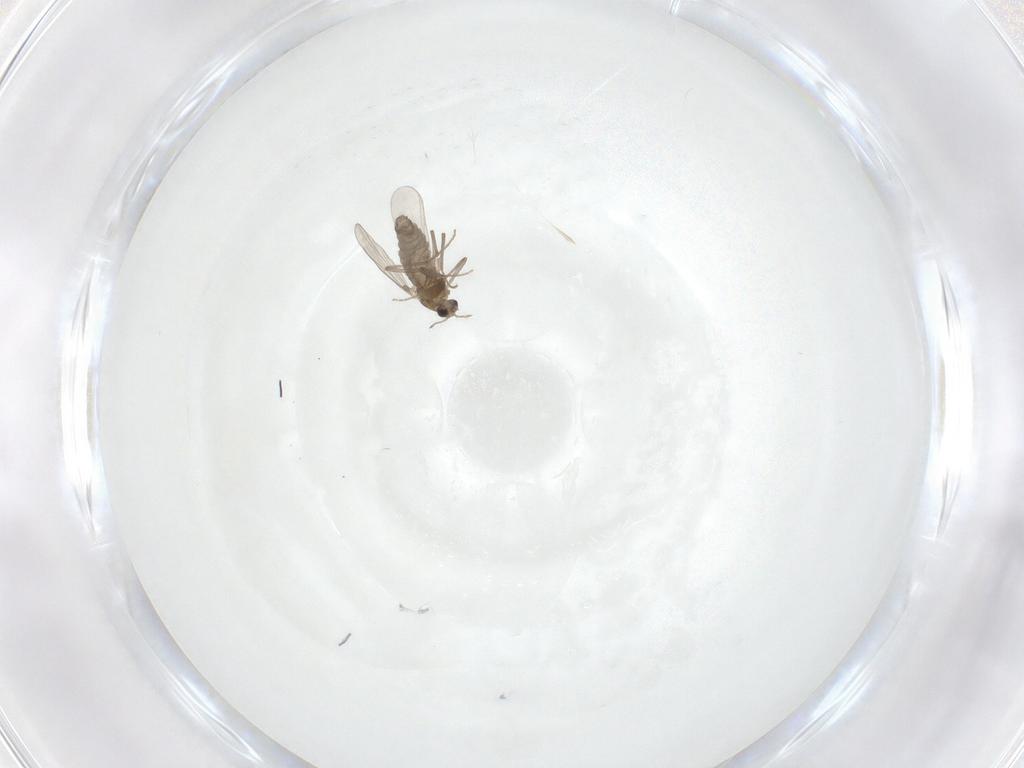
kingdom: Animalia
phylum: Arthropoda
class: Insecta
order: Diptera
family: Chironomidae
